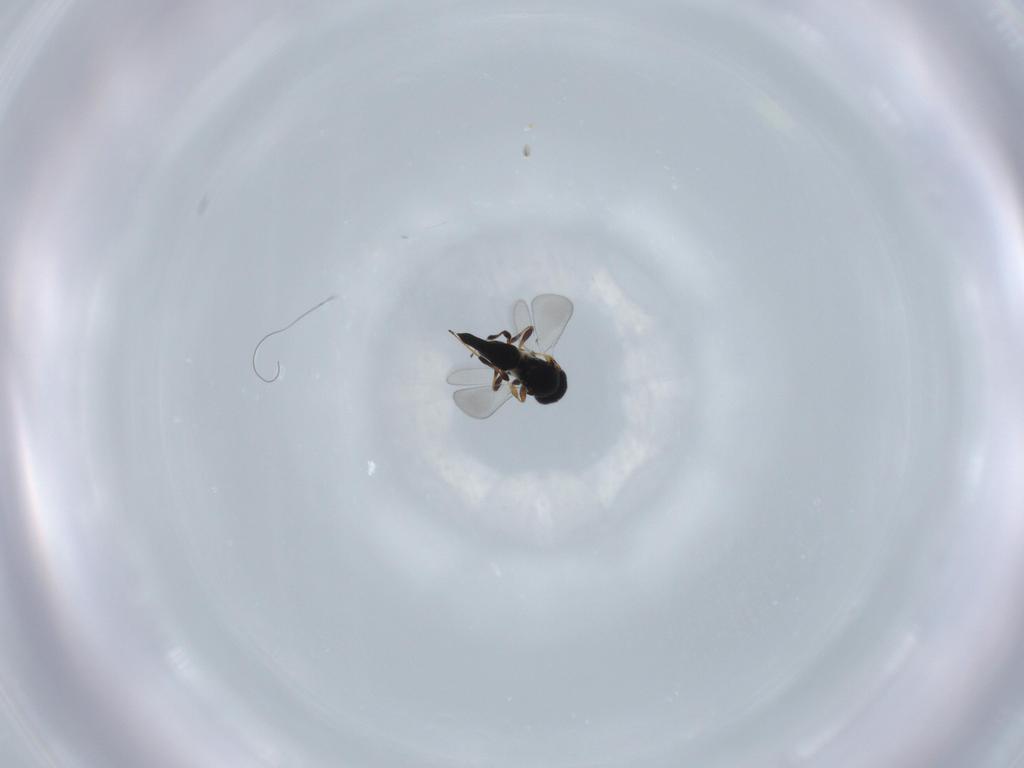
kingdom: Animalia
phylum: Arthropoda
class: Insecta
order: Hymenoptera
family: Platygastridae
